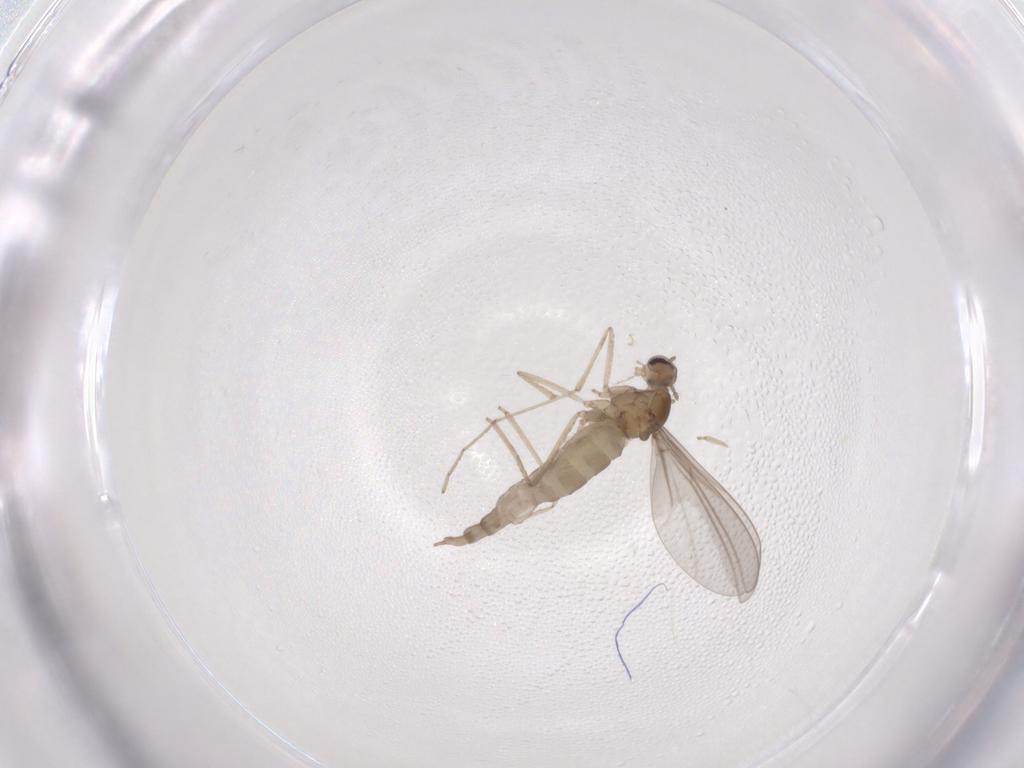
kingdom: Animalia
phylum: Arthropoda
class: Insecta
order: Diptera
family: Cecidomyiidae
